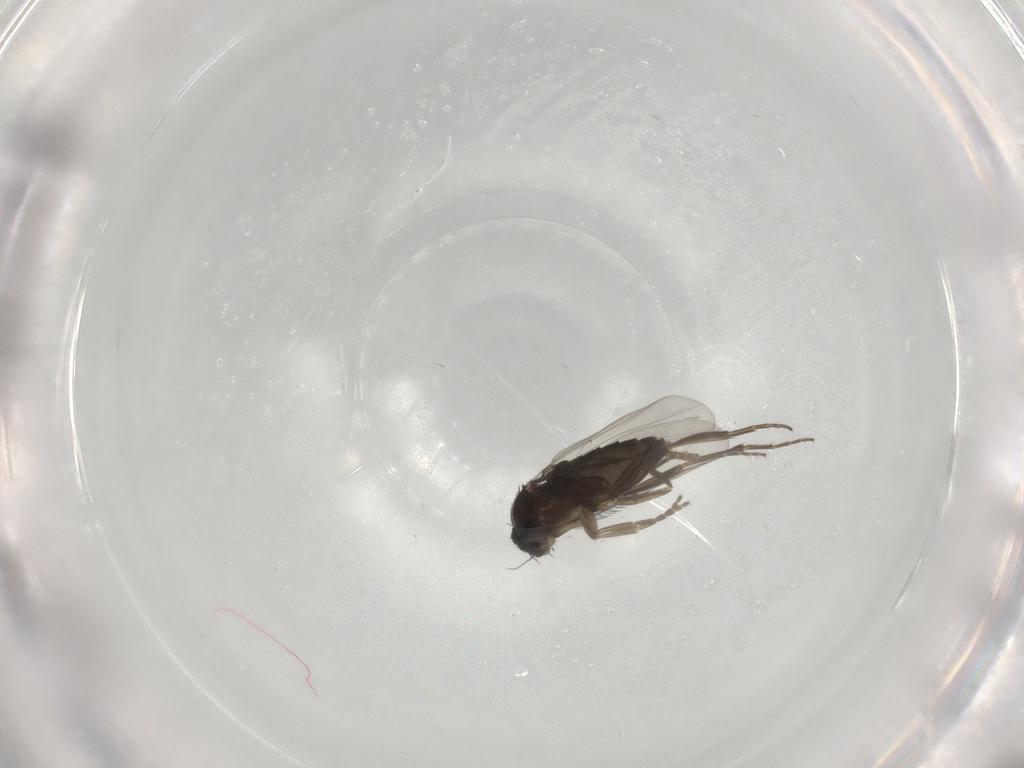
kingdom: Animalia
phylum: Arthropoda
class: Insecta
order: Diptera
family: Phoridae
